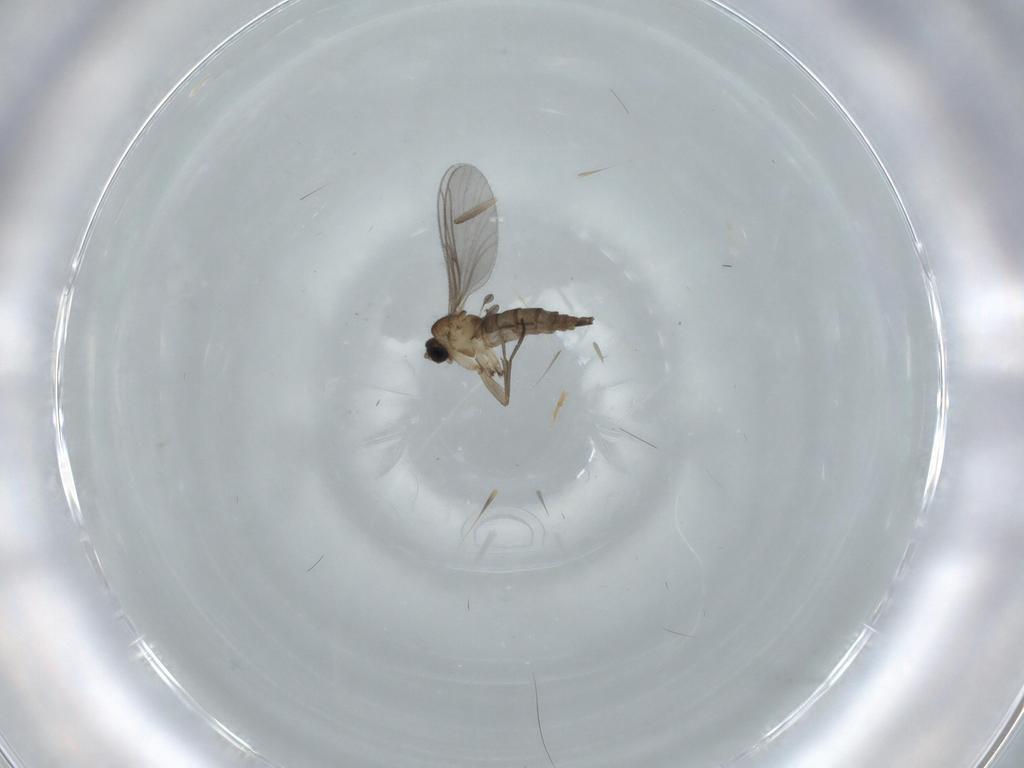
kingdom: Animalia
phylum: Arthropoda
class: Insecta
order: Diptera
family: Sciaridae
